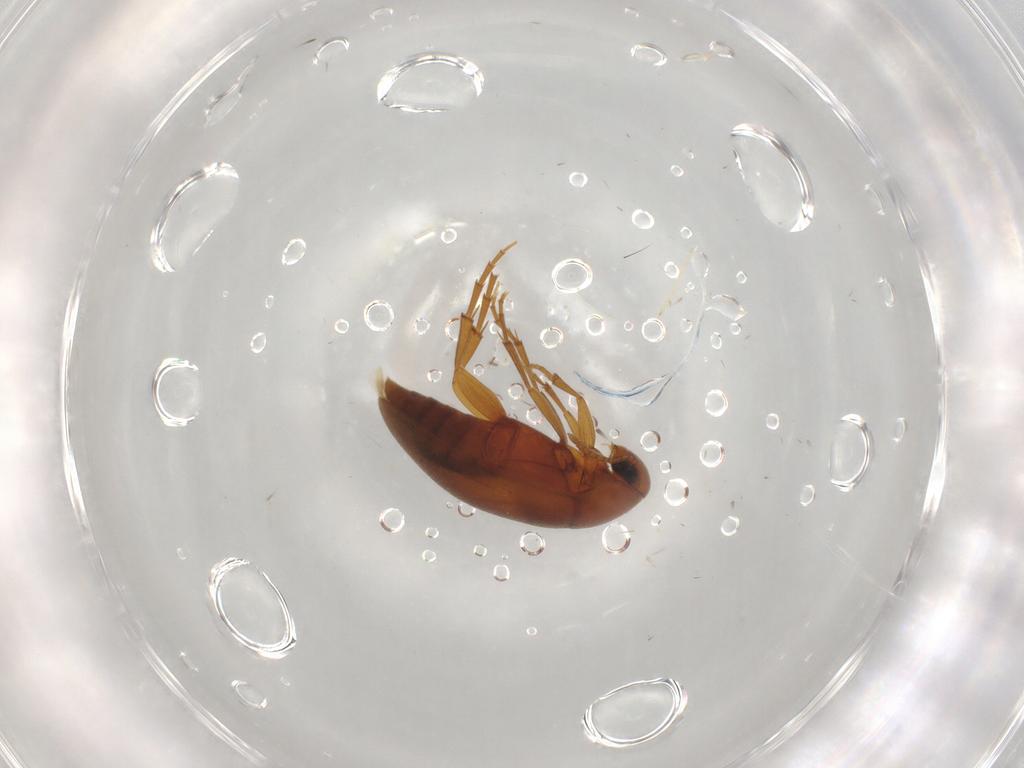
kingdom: Animalia
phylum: Arthropoda
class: Insecta
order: Coleoptera
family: Scraptiidae
